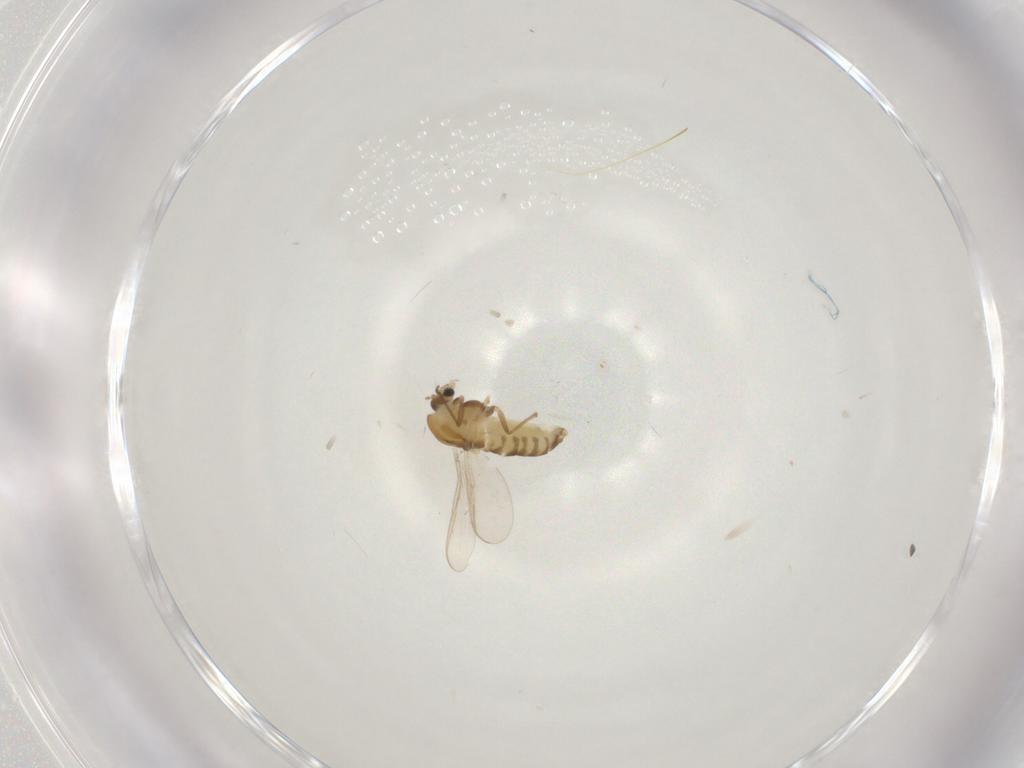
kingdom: Animalia
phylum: Arthropoda
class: Insecta
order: Diptera
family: Chironomidae
